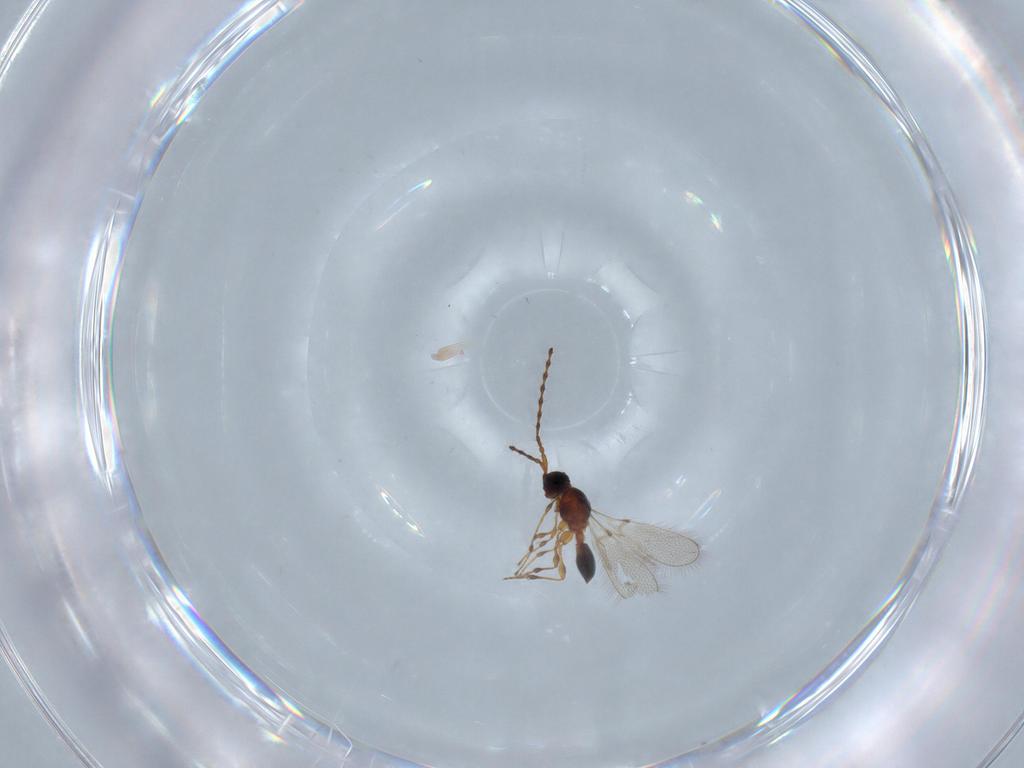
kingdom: Animalia
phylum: Arthropoda
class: Insecta
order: Hymenoptera
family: Diapriidae
